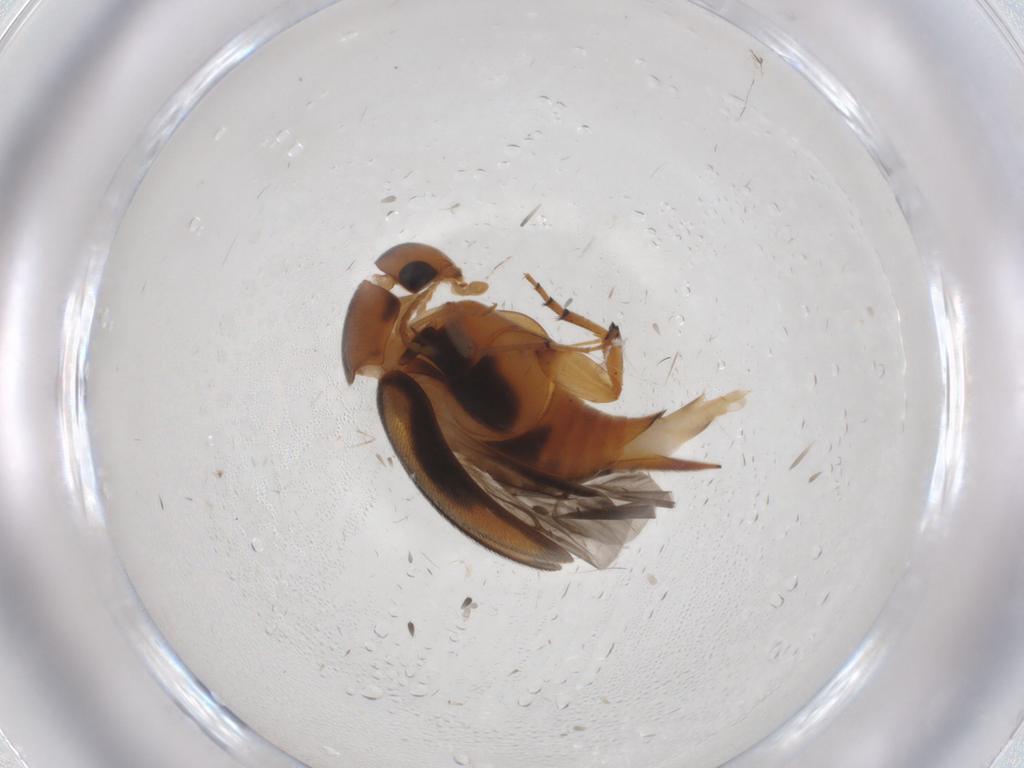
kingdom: Animalia
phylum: Arthropoda
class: Insecta
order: Coleoptera
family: Mordellidae
